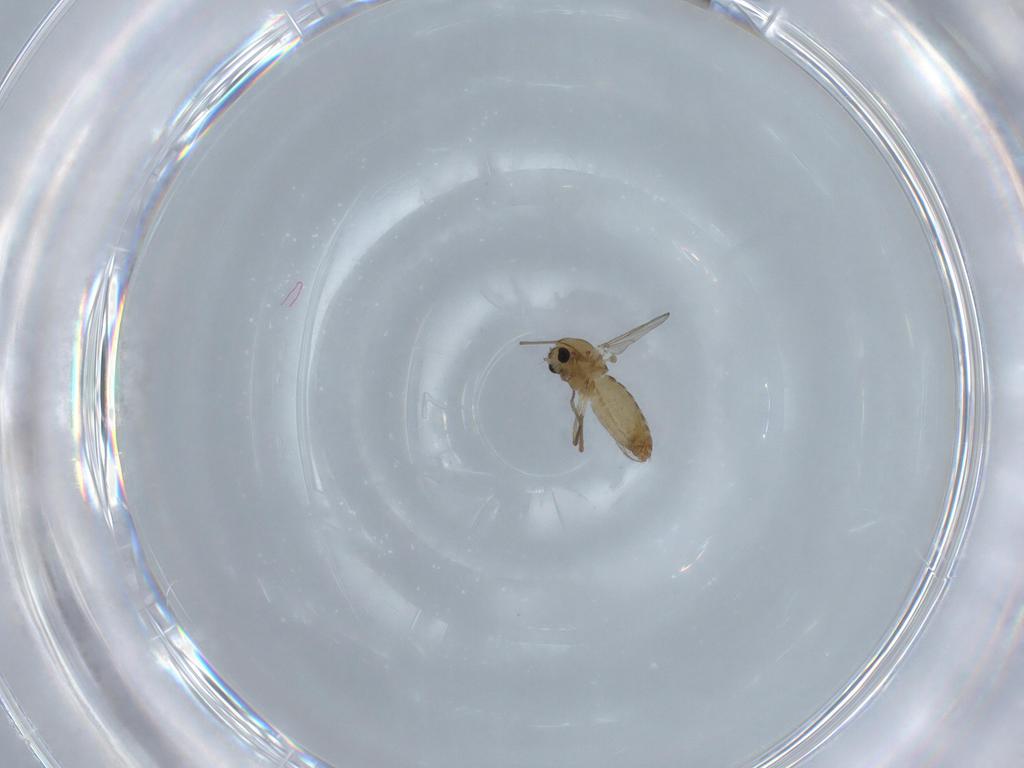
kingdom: Animalia
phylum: Arthropoda
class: Insecta
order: Diptera
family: Chironomidae
